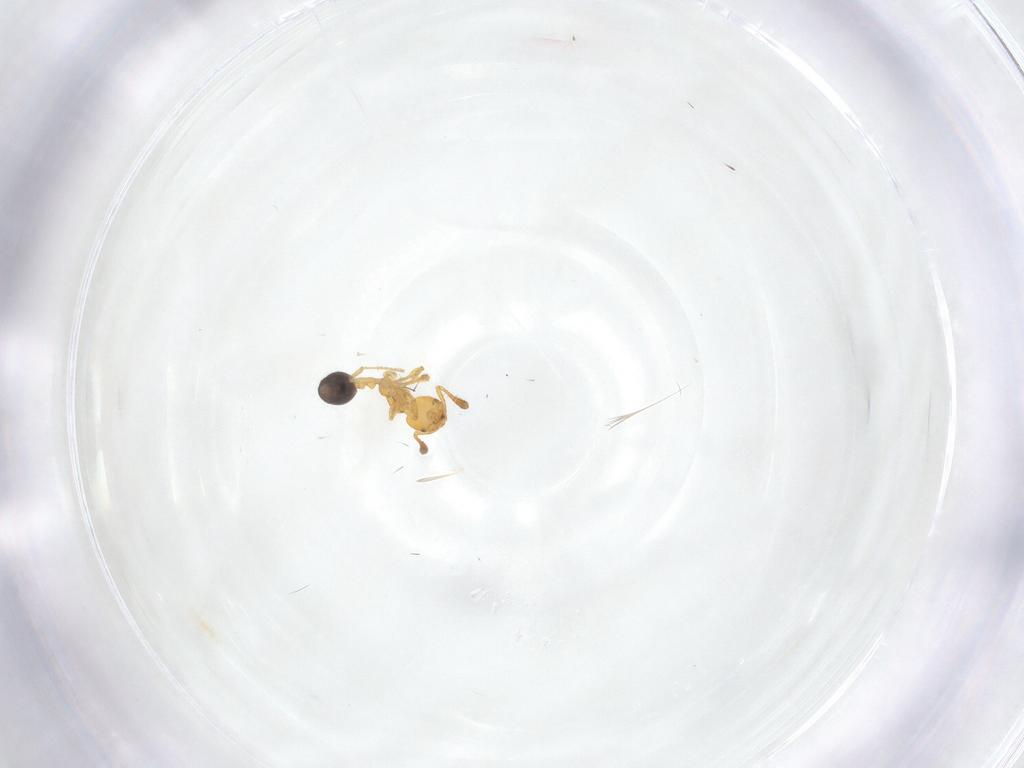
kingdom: Animalia
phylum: Arthropoda
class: Insecta
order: Hymenoptera
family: Formicidae
